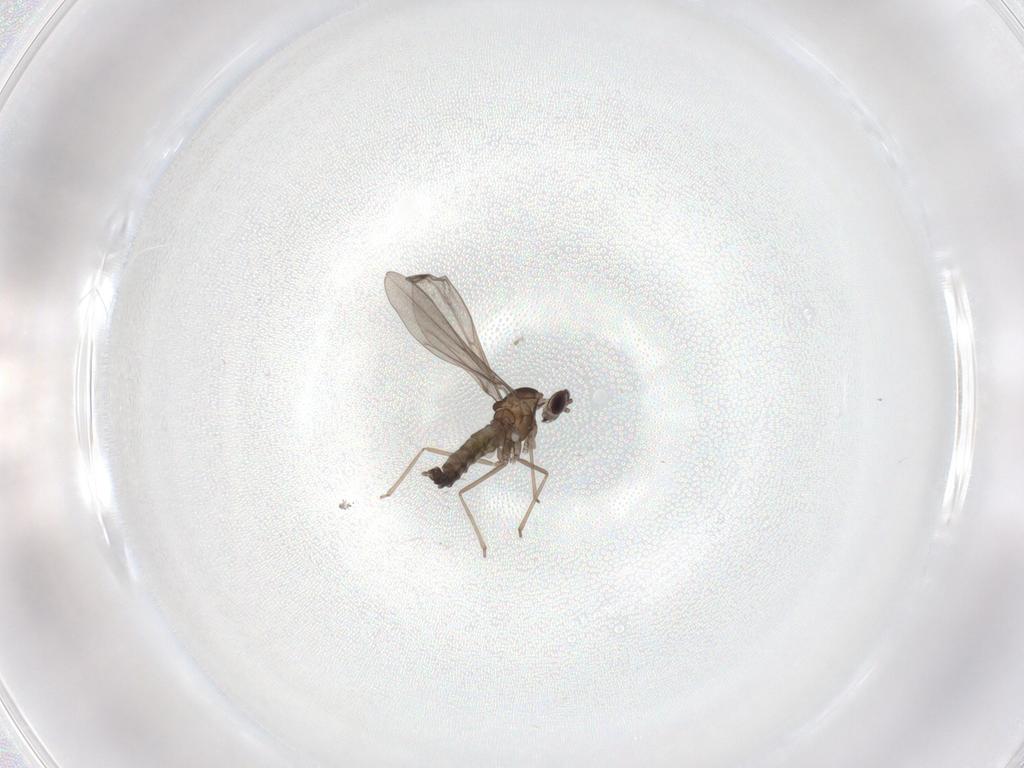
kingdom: Animalia
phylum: Arthropoda
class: Insecta
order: Diptera
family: Cecidomyiidae
